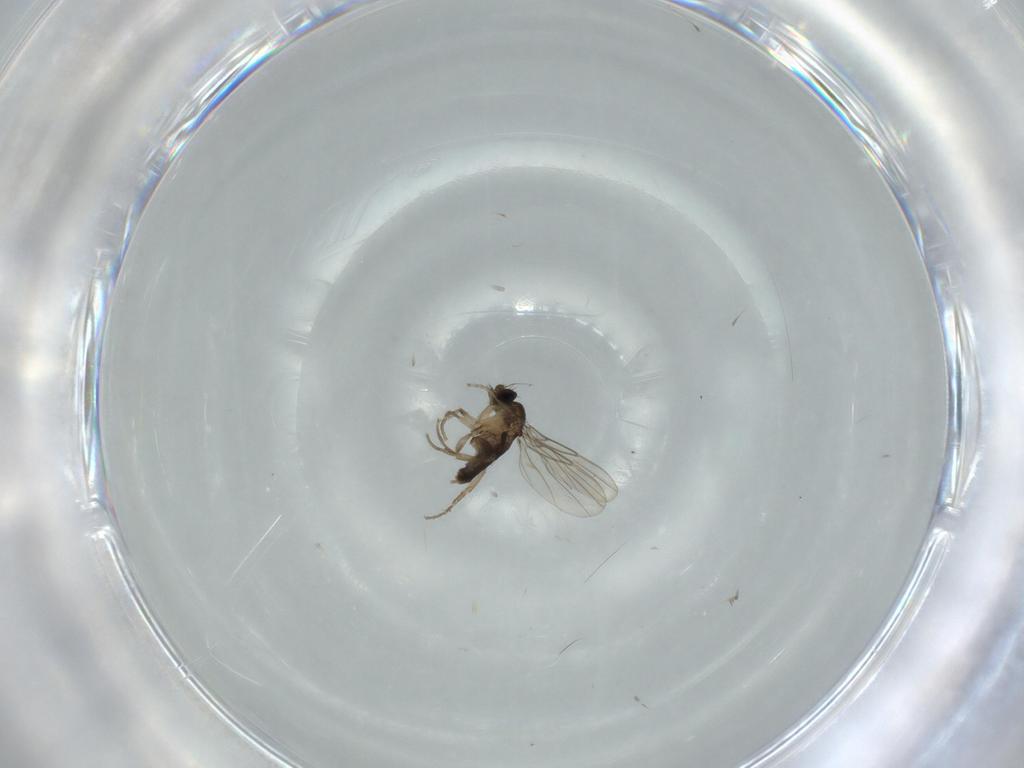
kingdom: Animalia
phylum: Arthropoda
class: Insecta
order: Diptera
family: Phoridae
